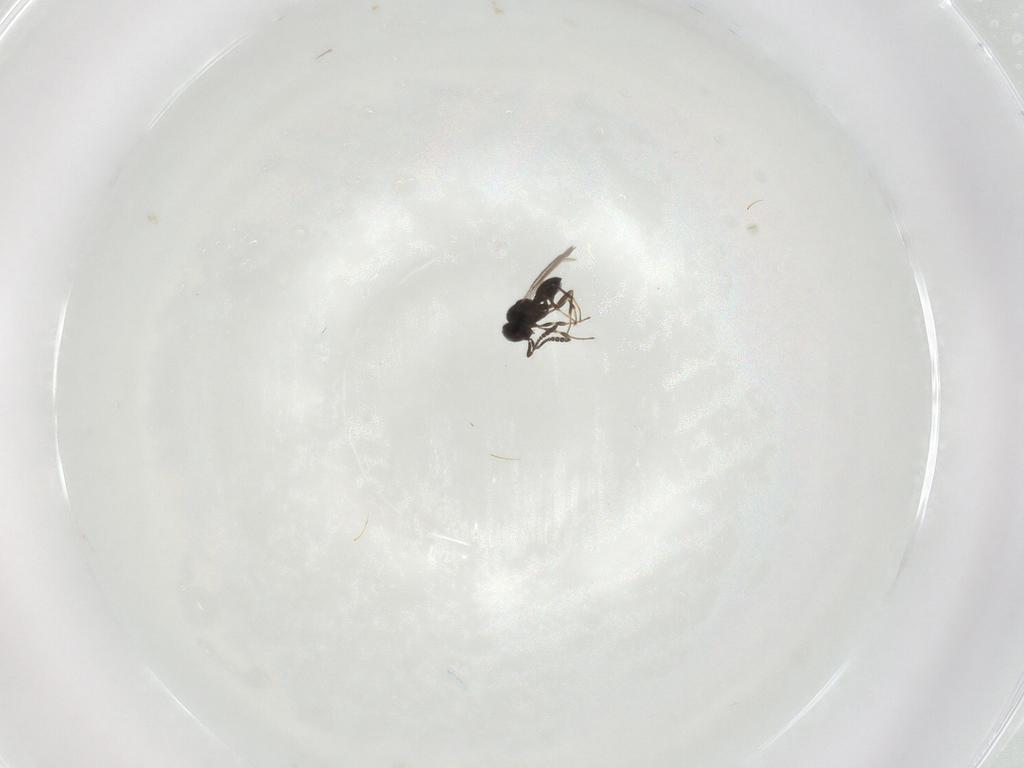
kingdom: Animalia
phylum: Arthropoda
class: Insecta
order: Hymenoptera
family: Scelionidae
